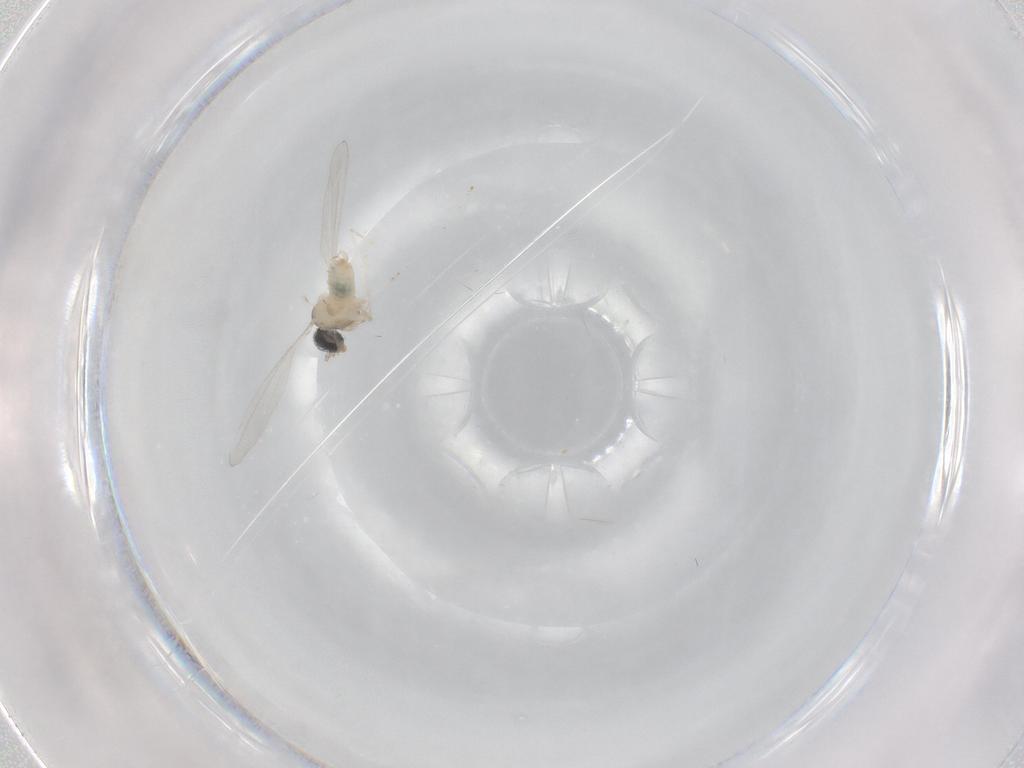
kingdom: Animalia
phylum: Arthropoda
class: Insecta
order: Diptera
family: Cecidomyiidae
